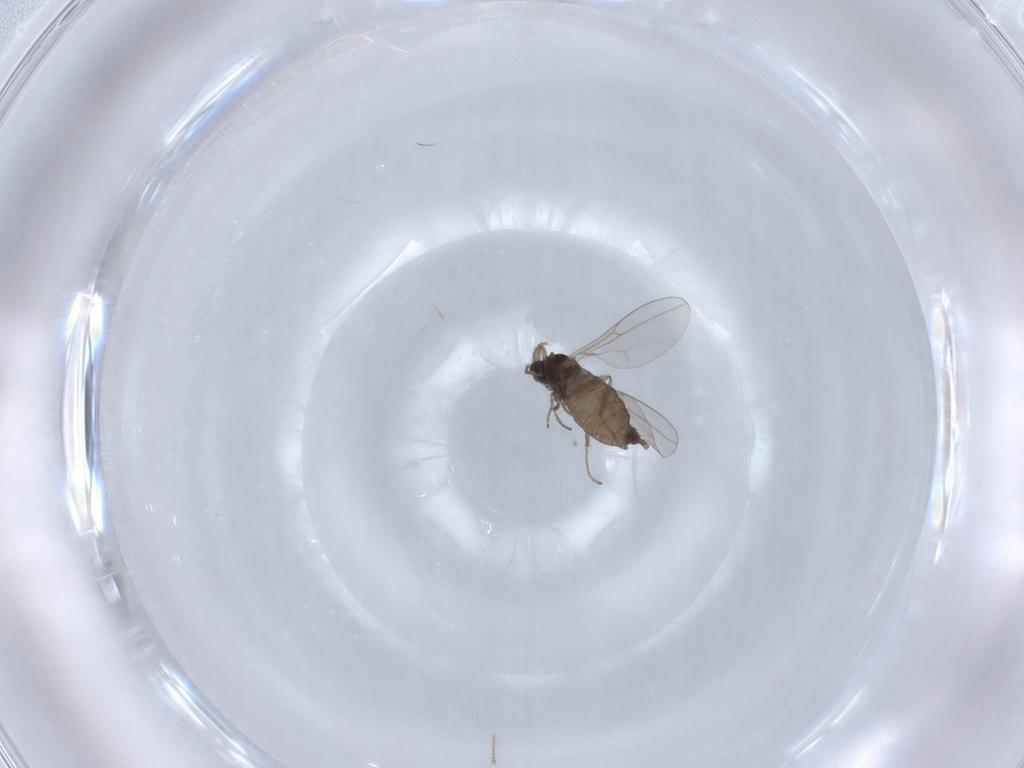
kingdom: Animalia
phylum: Arthropoda
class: Insecta
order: Diptera
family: Cecidomyiidae
